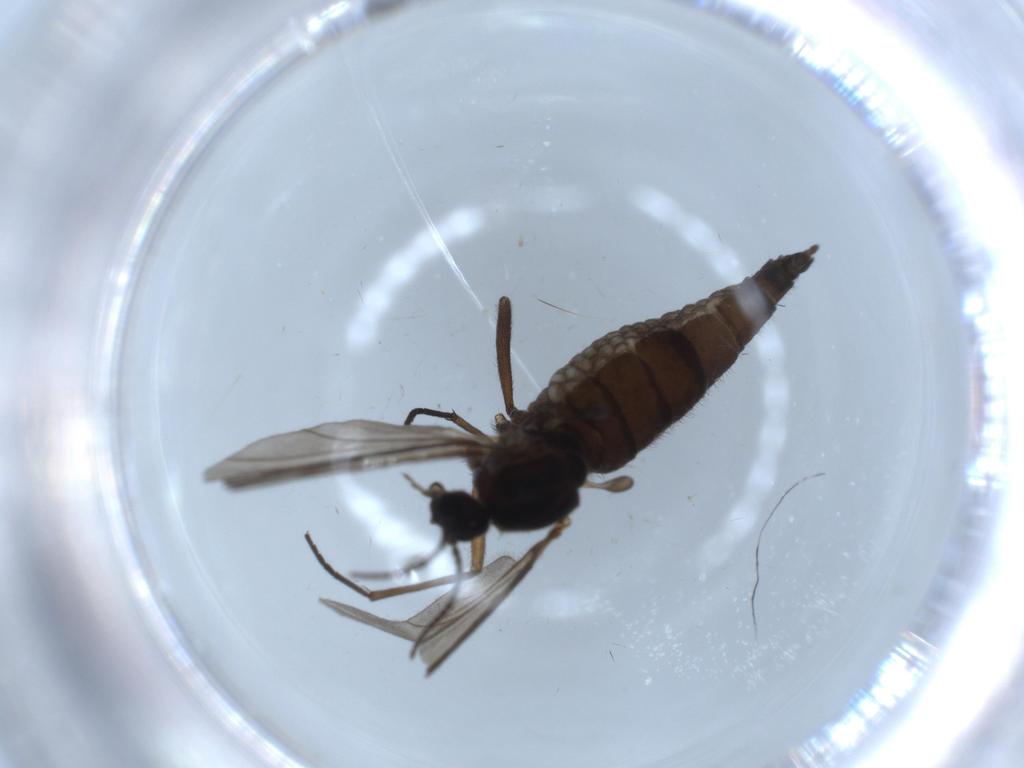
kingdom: Animalia
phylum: Arthropoda
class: Insecta
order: Diptera
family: Sciaridae
